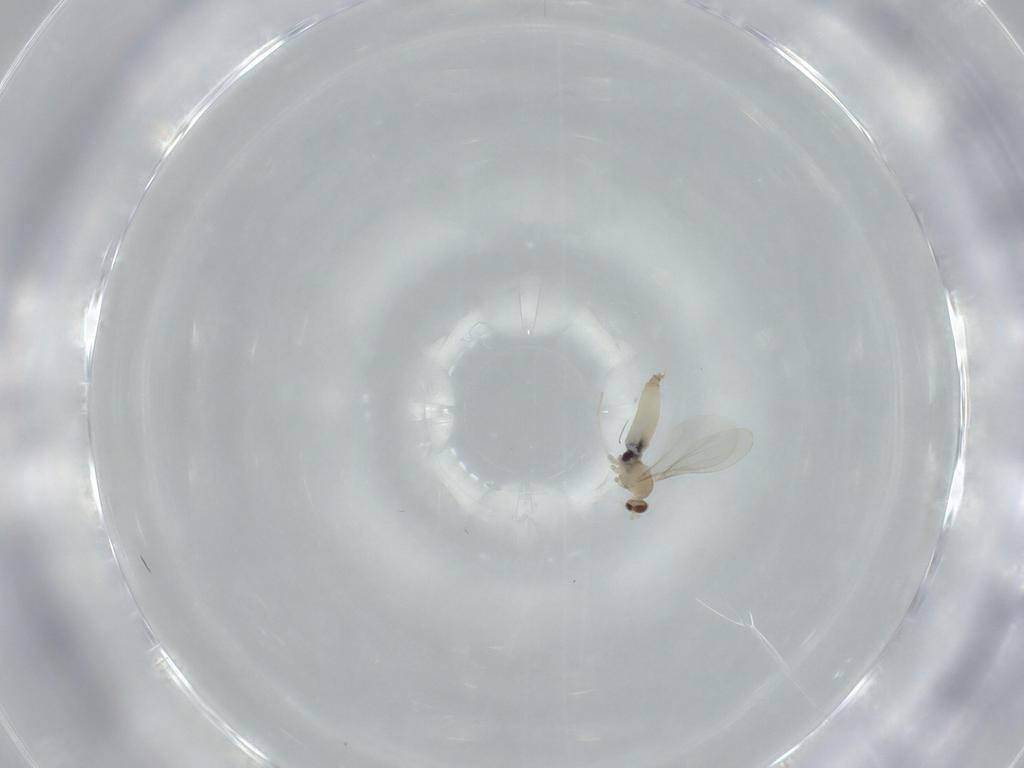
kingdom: Animalia
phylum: Arthropoda
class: Insecta
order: Diptera
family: Cecidomyiidae
